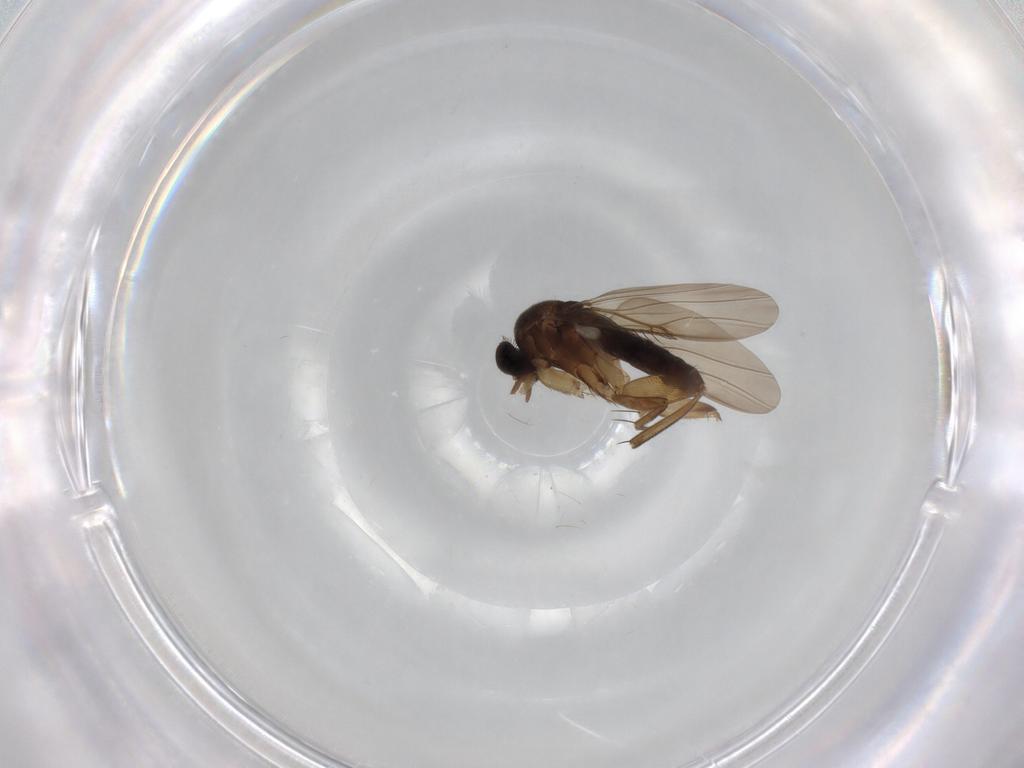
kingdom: Animalia
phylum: Arthropoda
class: Insecta
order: Diptera
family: Phoridae
